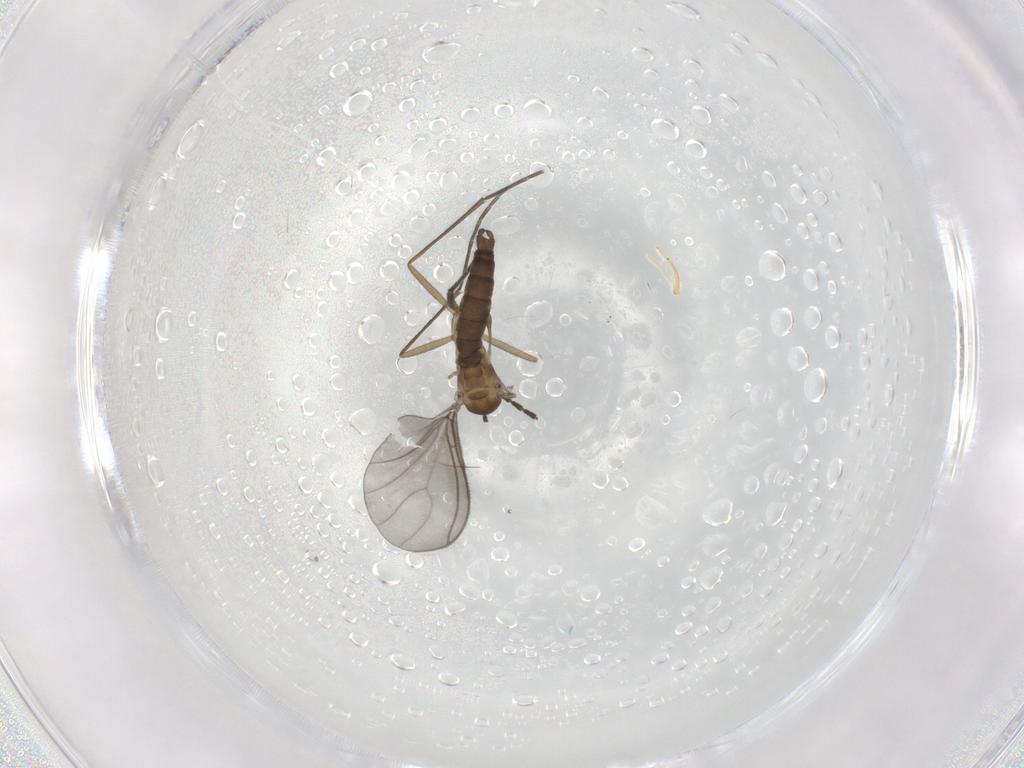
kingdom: Animalia
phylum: Arthropoda
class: Insecta
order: Diptera
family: Sciaridae
